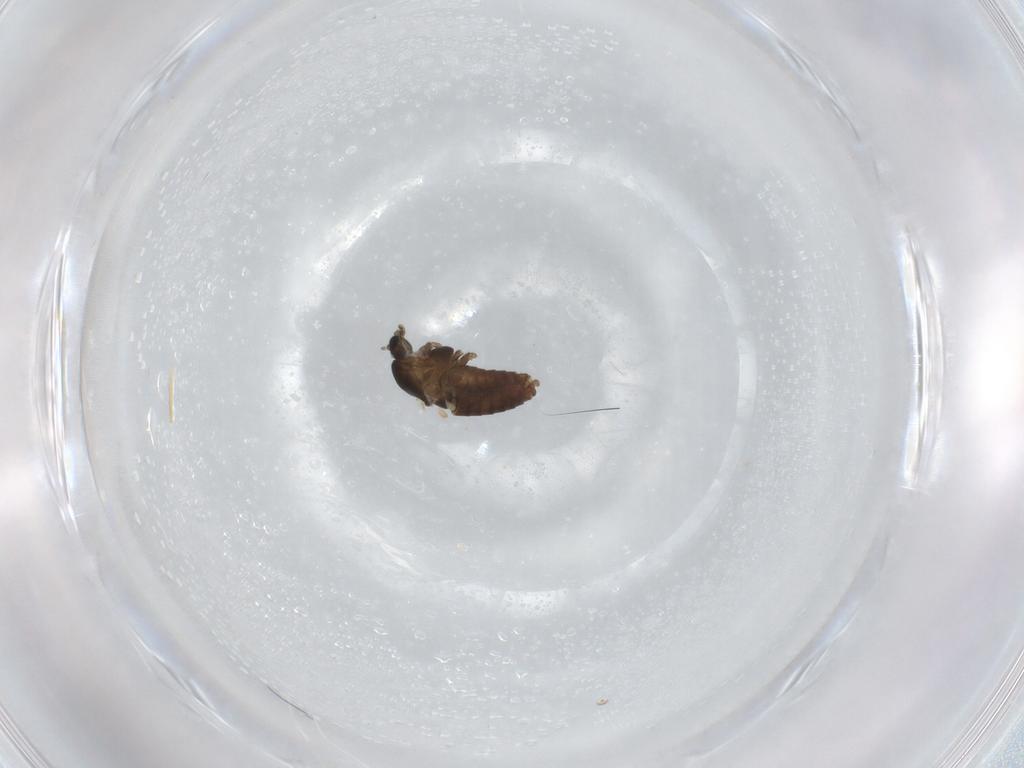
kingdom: Animalia
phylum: Arthropoda
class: Insecta
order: Diptera
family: Chironomidae
